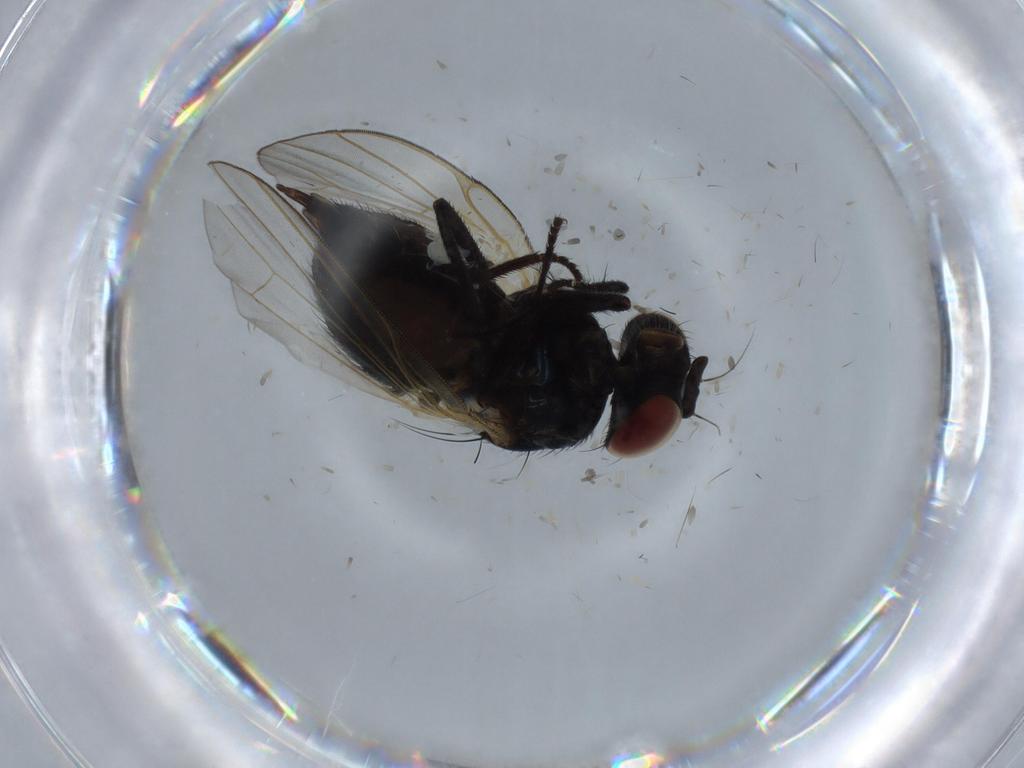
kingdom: Animalia
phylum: Arthropoda
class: Insecta
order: Diptera
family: Lonchaeidae
